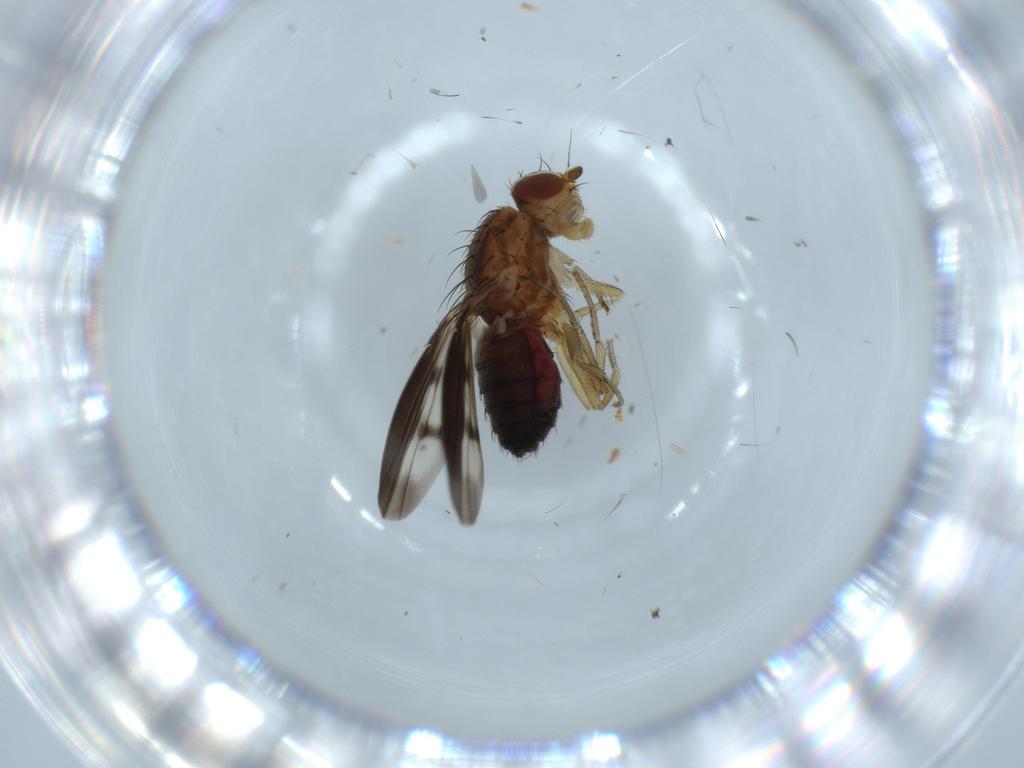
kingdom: Animalia
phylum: Arthropoda
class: Insecta
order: Diptera
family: Heleomyzidae
